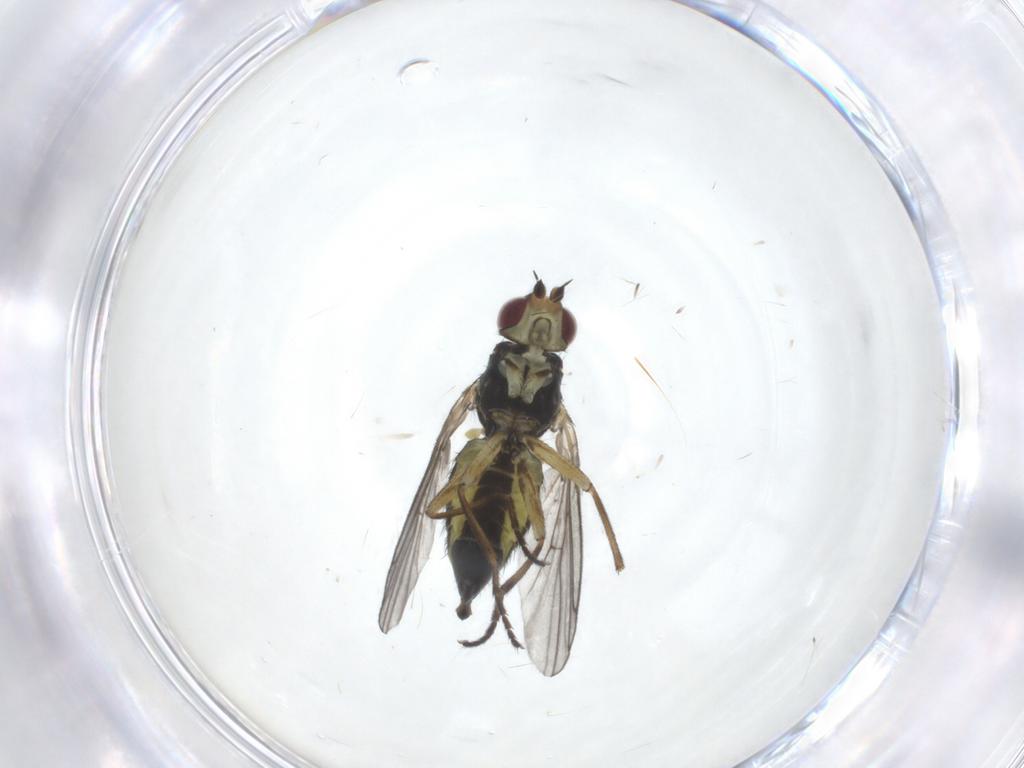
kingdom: Animalia
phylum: Arthropoda
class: Insecta
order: Diptera
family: Agromyzidae
